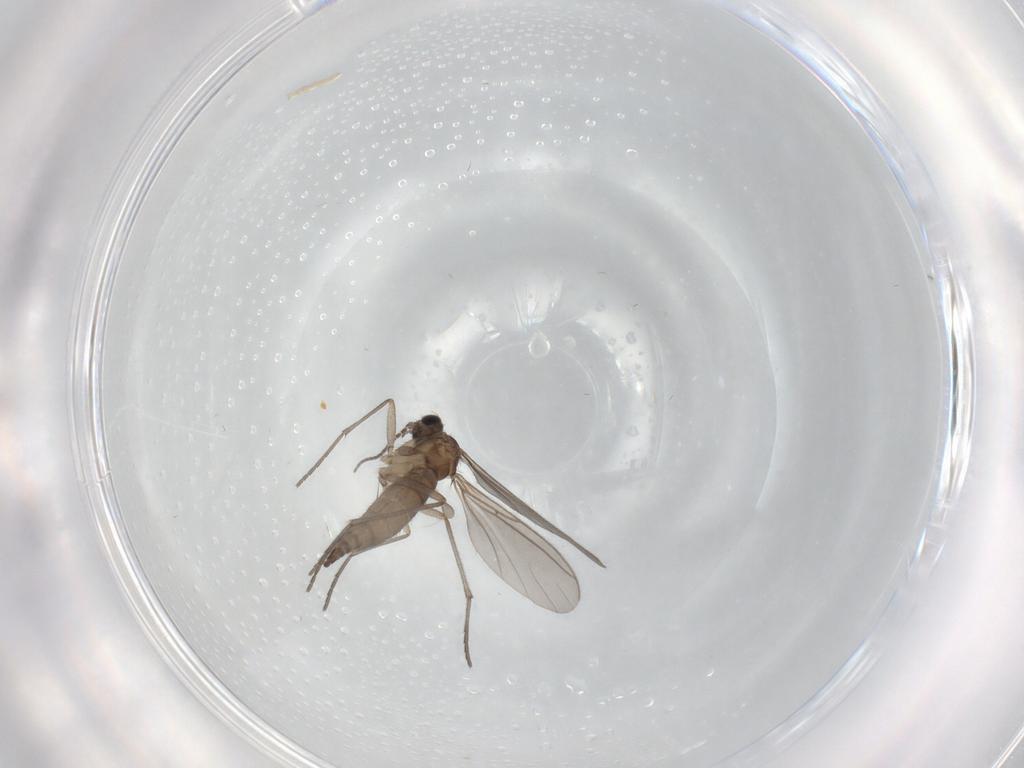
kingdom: Animalia
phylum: Arthropoda
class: Insecta
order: Diptera
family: Sciaridae
